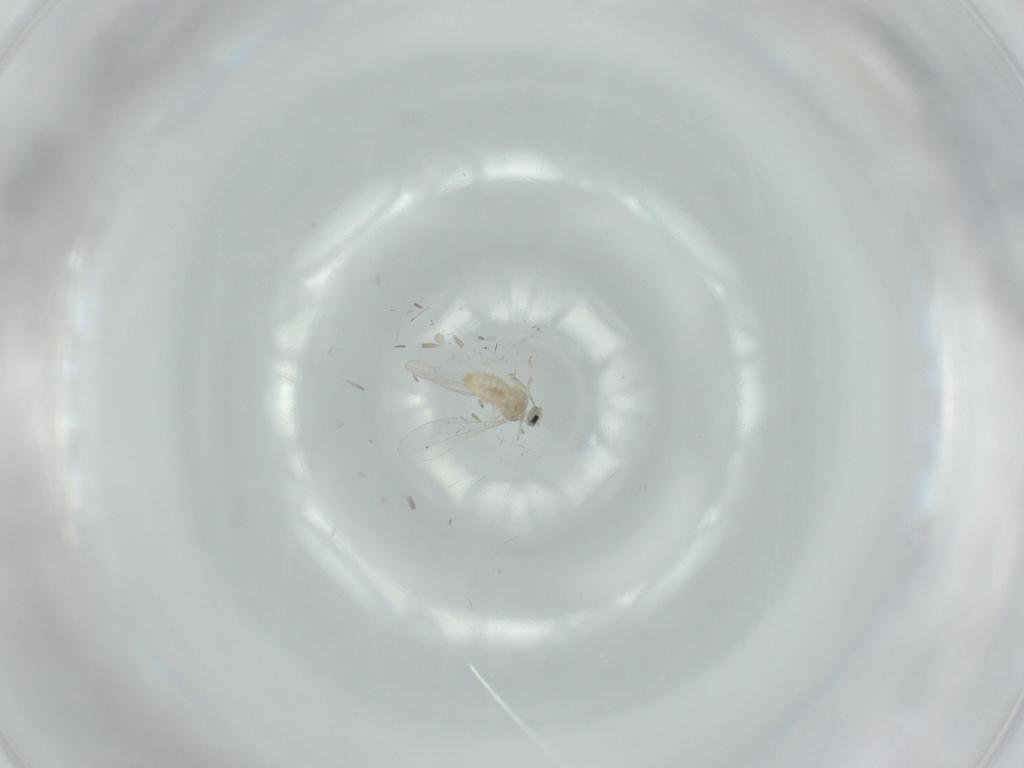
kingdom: Animalia
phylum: Arthropoda
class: Insecta
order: Diptera
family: Cecidomyiidae
